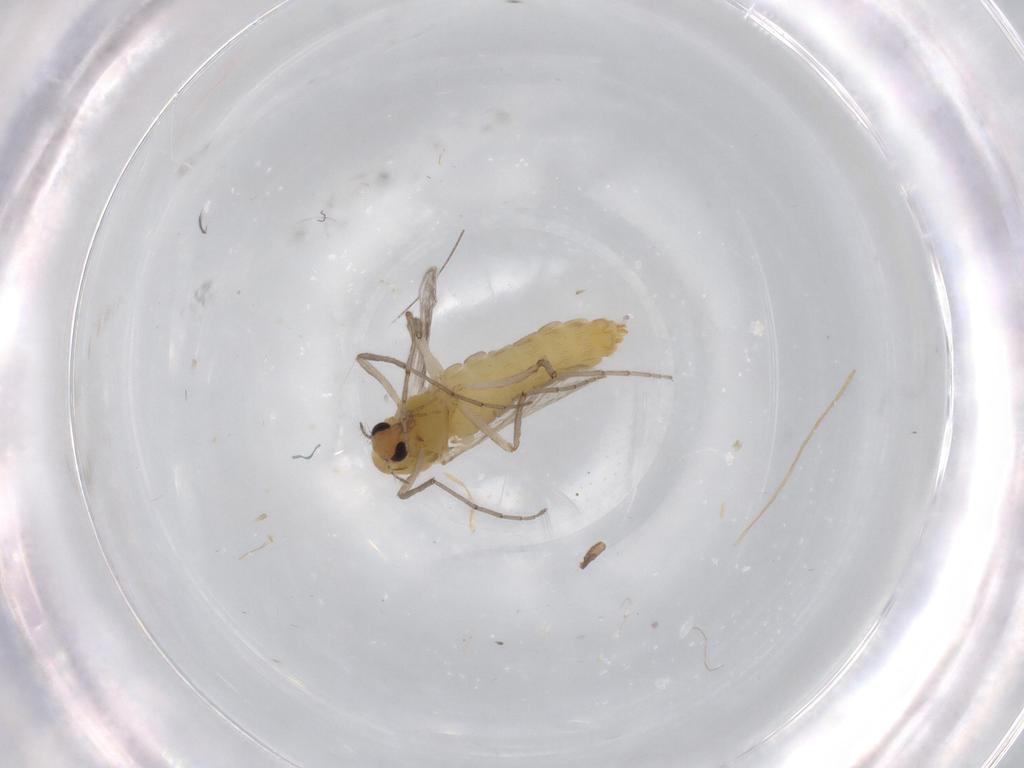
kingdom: Animalia
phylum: Arthropoda
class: Insecta
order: Diptera
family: Chironomidae
